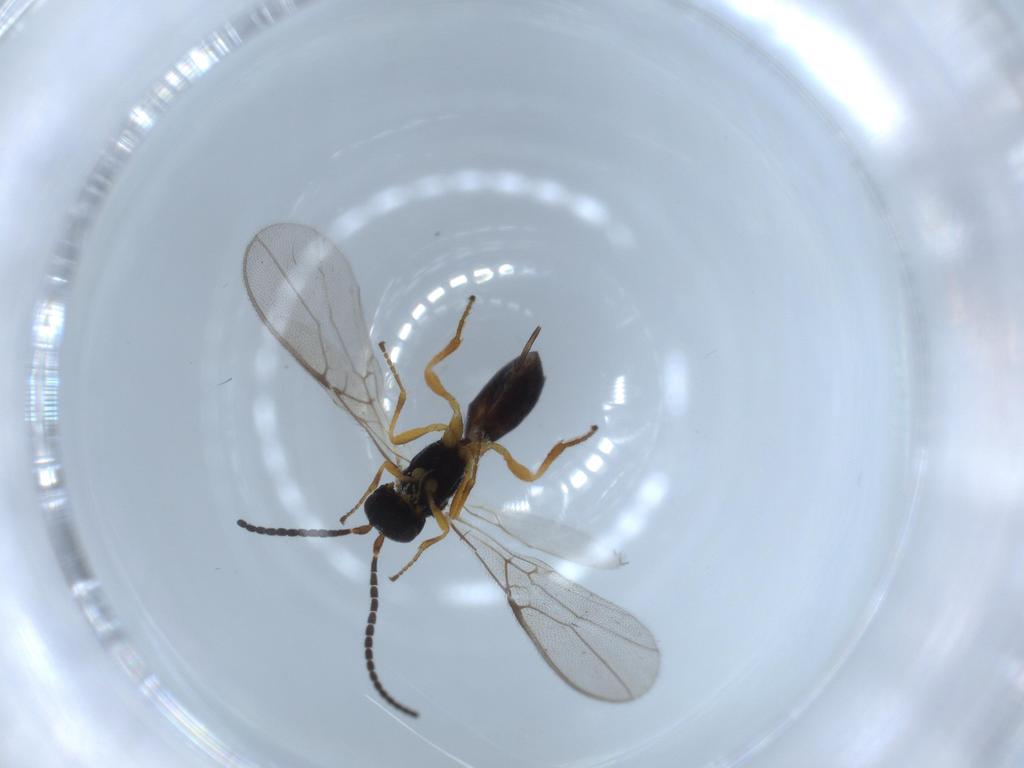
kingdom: Animalia
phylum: Arthropoda
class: Insecta
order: Hymenoptera
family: Braconidae
